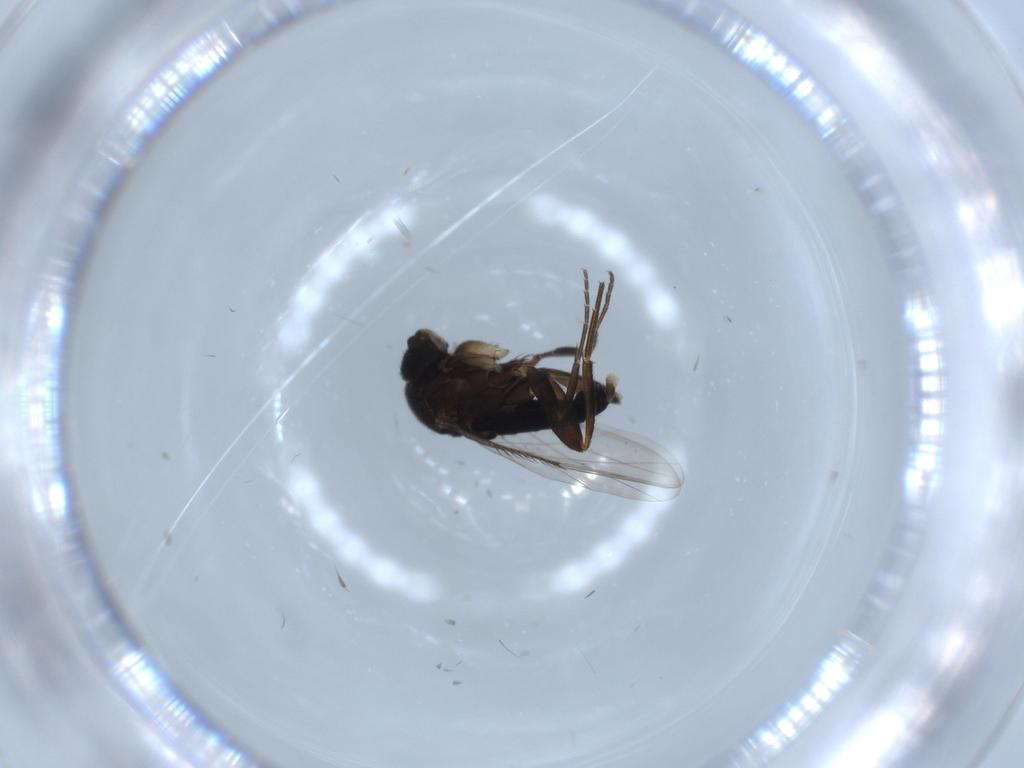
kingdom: Animalia
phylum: Arthropoda
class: Insecta
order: Diptera
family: Phoridae
